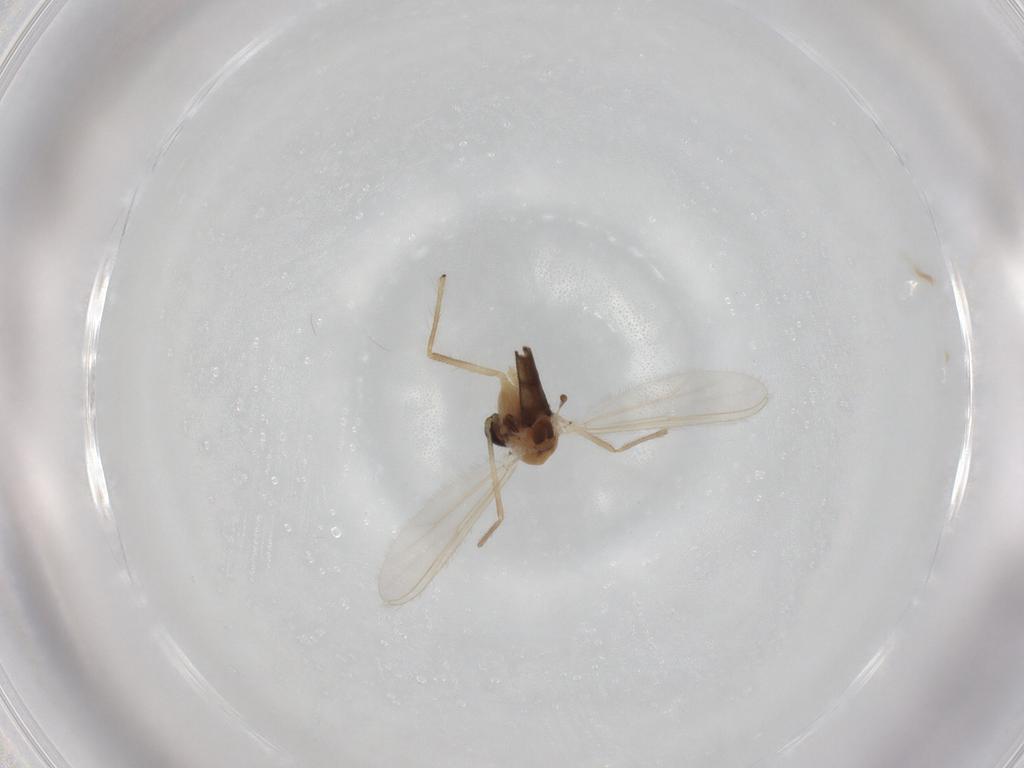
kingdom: Animalia
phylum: Arthropoda
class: Insecta
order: Diptera
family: Chironomidae
